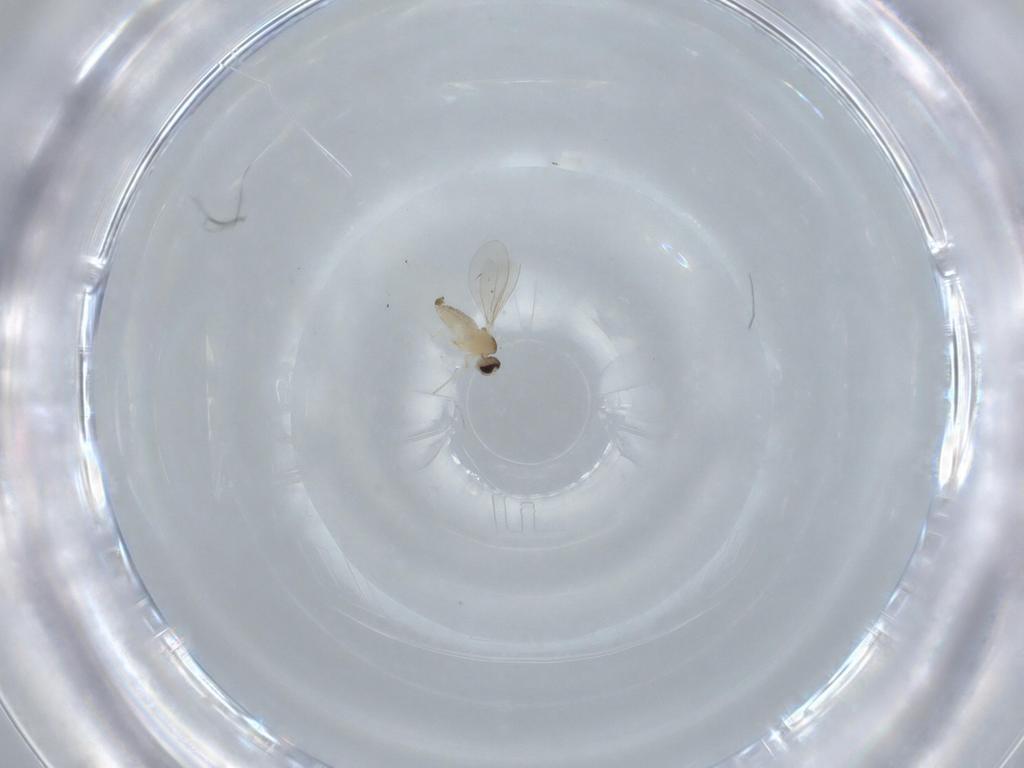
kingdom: Animalia
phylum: Arthropoda
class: Insecta
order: Diptera
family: Cecidomyiidae
